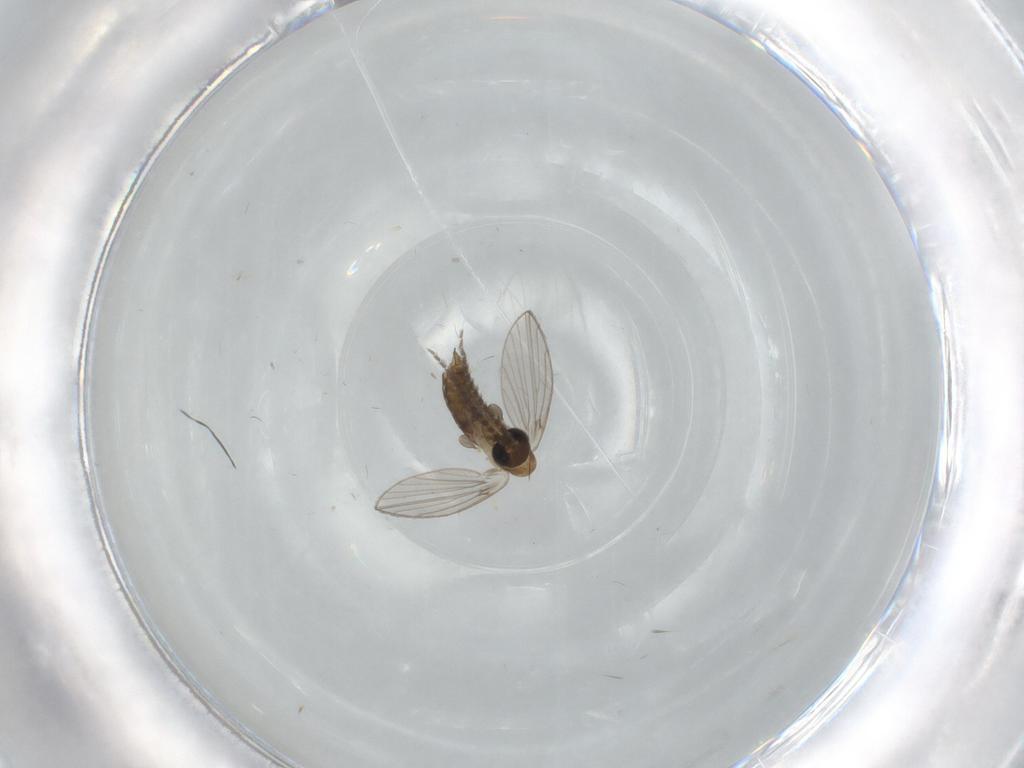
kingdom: Animalia
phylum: Arthropoda
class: Insecta
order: Diptera
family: Psychodidae
